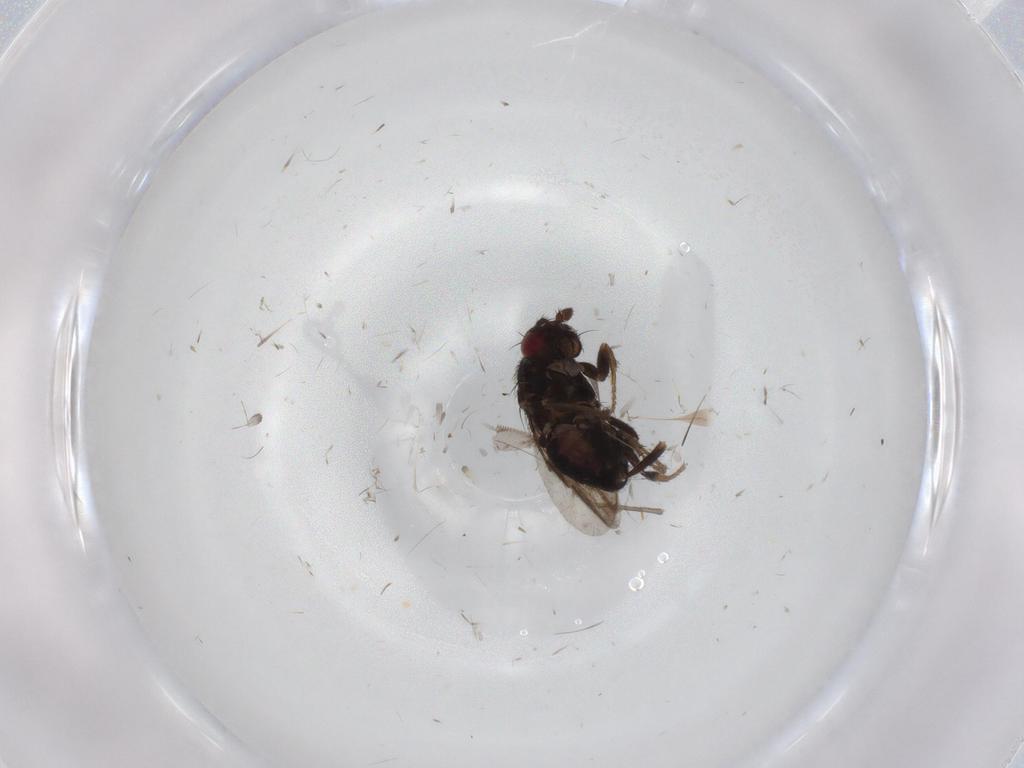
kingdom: Animalia
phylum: Arthropoda
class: Insecta
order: Diptera
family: Sphaeroceridae
